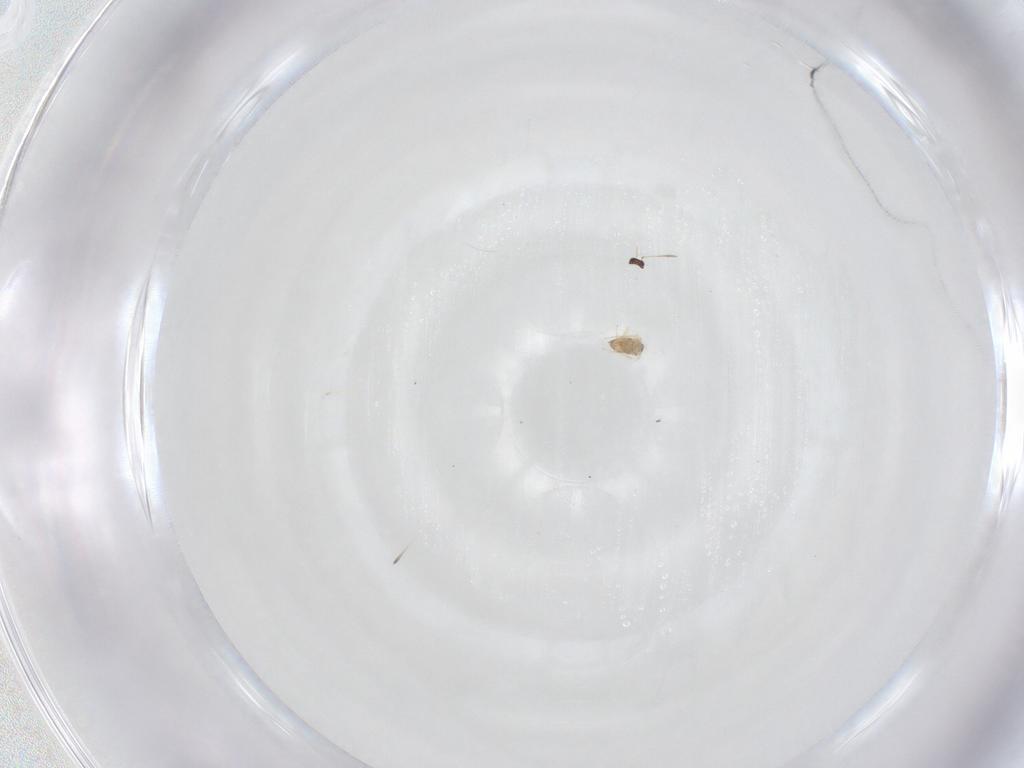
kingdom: Animalia
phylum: Arthropoda
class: Insecta
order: Hymenoptera
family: Mymaridae
